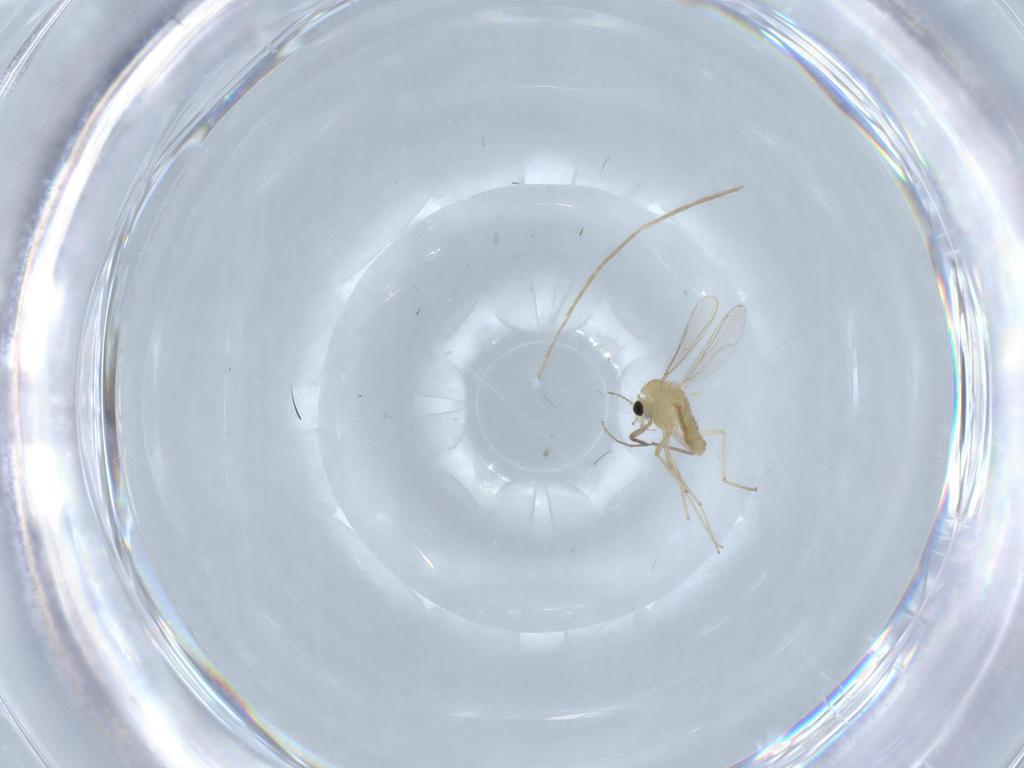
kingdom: Animalia
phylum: Arthropoda
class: Insecta
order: Diptera
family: Chironomidae
